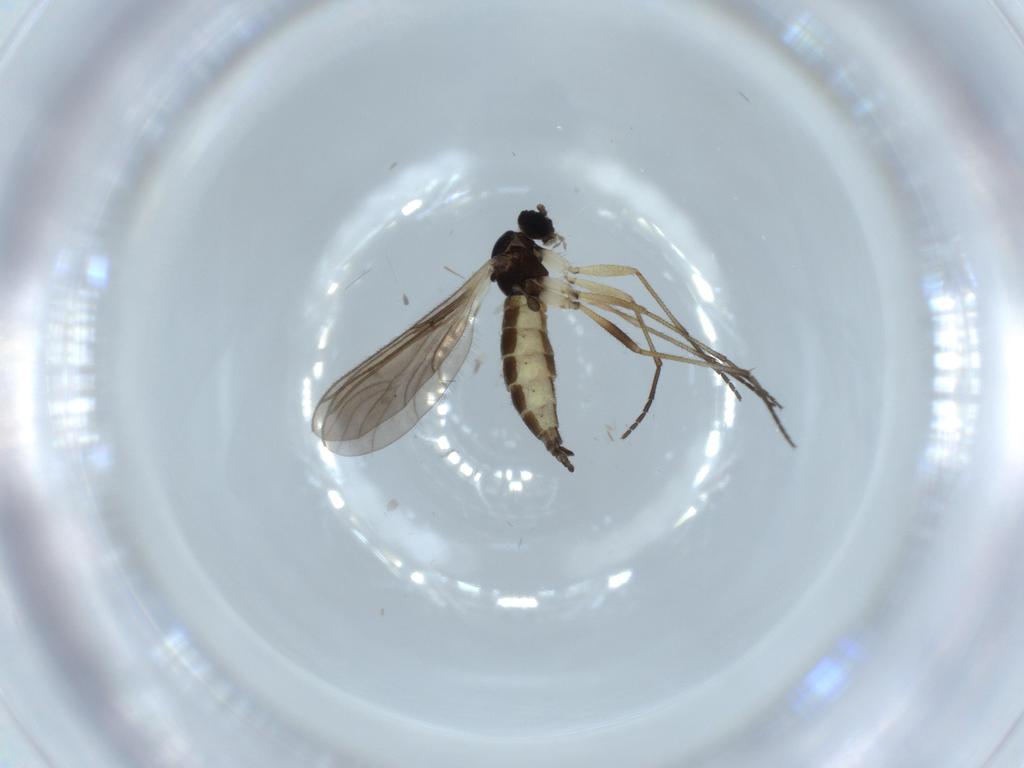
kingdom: Animalia
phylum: Arthropoda
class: Insecta
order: Diptera
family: Sciaridae
